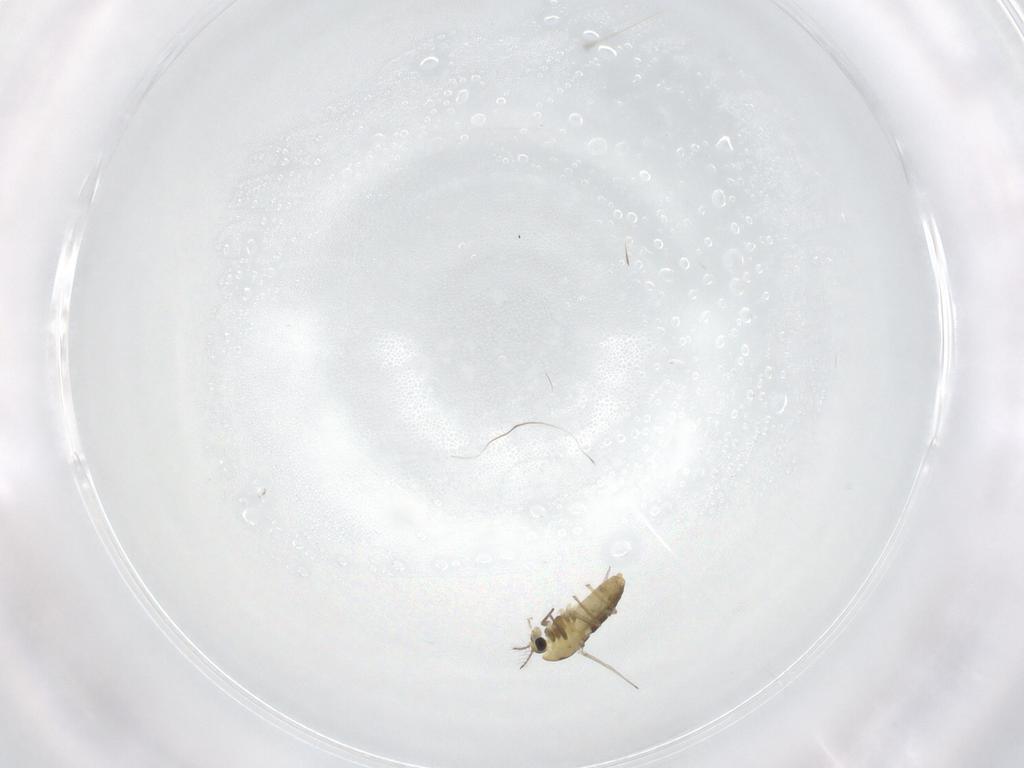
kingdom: Animalia
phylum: Arthropoda
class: Insecta
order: Diptera
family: Chironomidae
